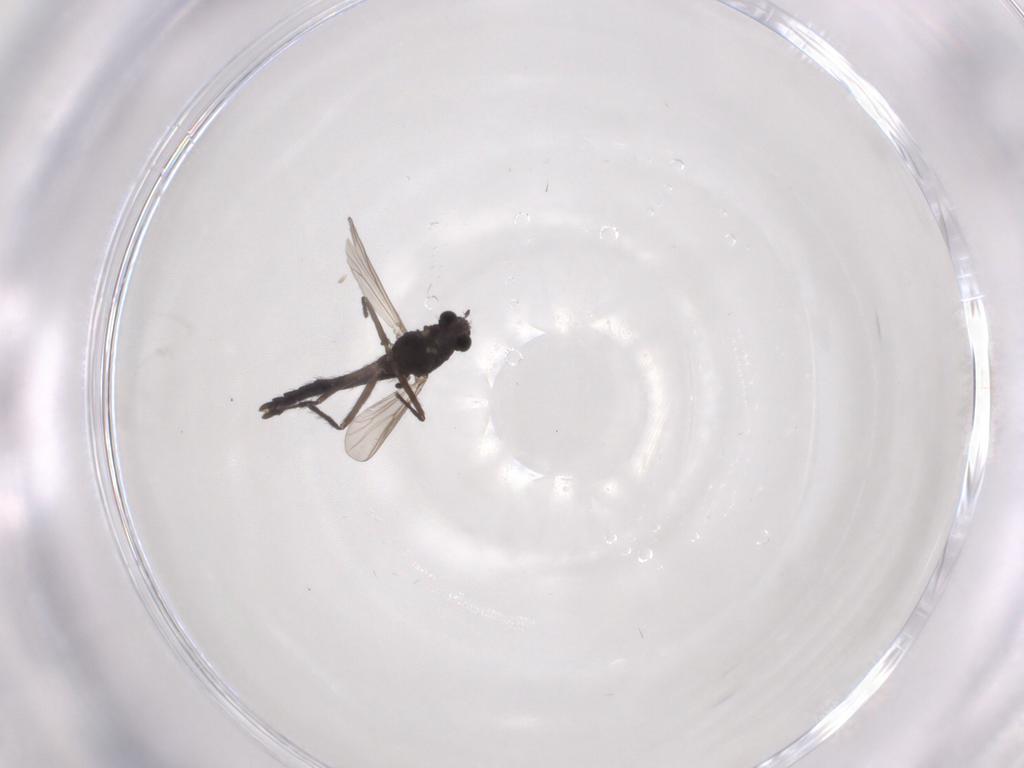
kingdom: Animalia
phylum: Arthropoda
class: Insecta
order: Diptera
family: Chironomidae
